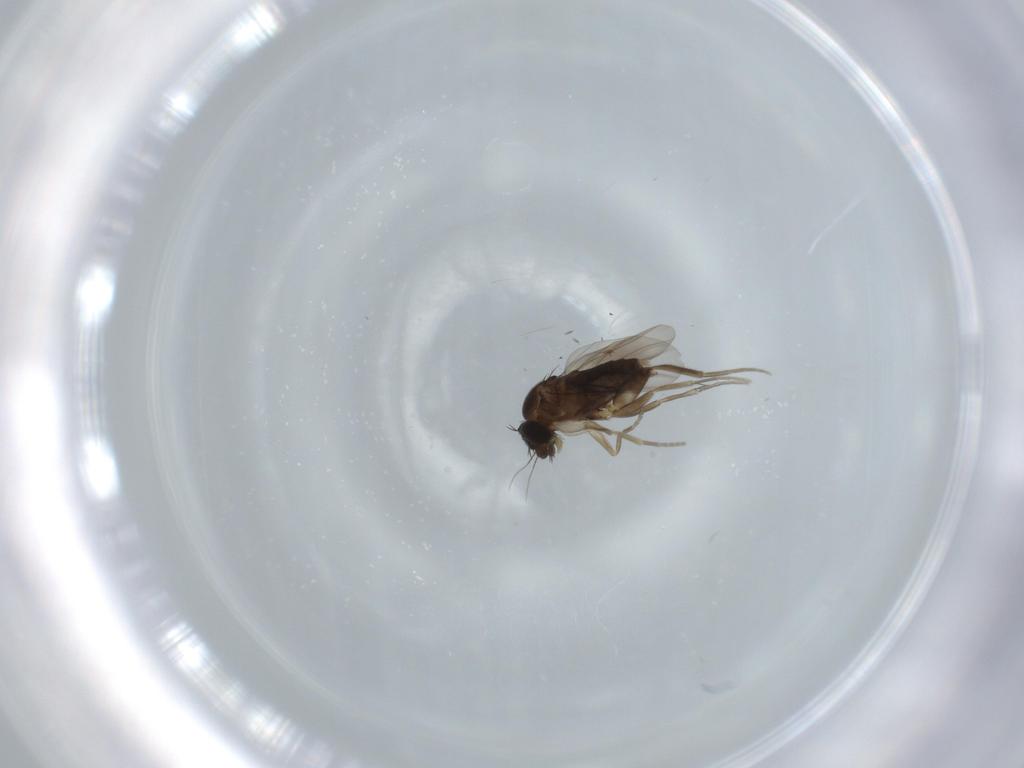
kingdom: Animalia
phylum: Arthropoda
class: Insecta
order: Diptera
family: Phoridae
